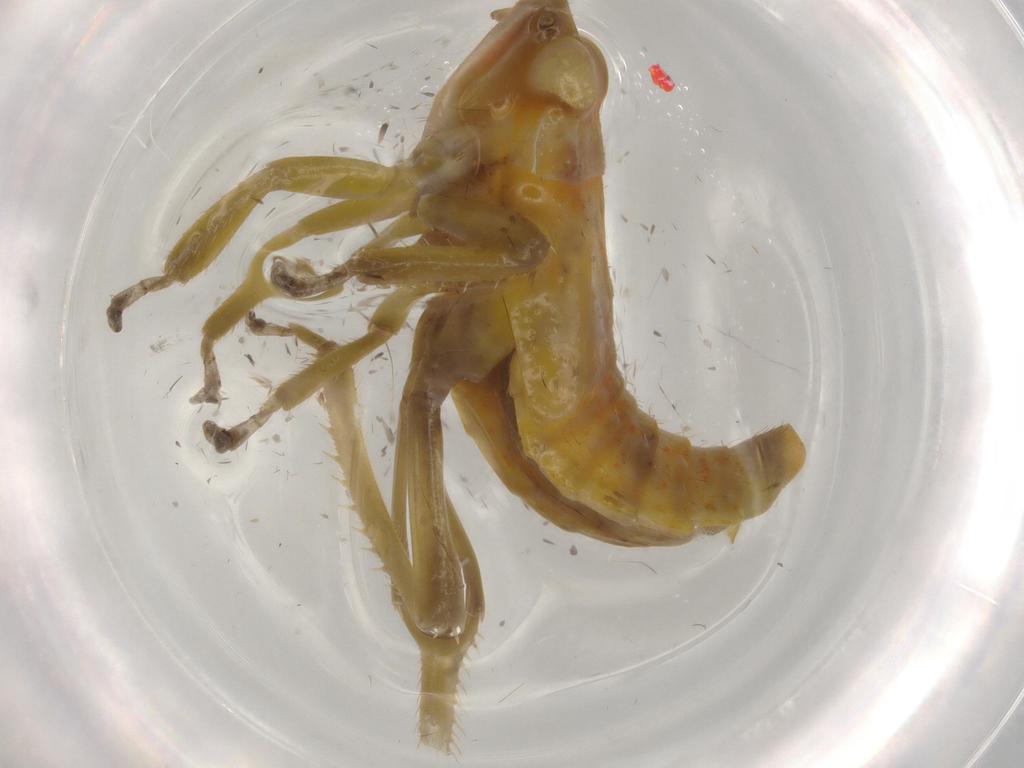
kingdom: Animalia
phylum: Arthropoda
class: Insecta
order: Hemiptera
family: Cicadellidae
